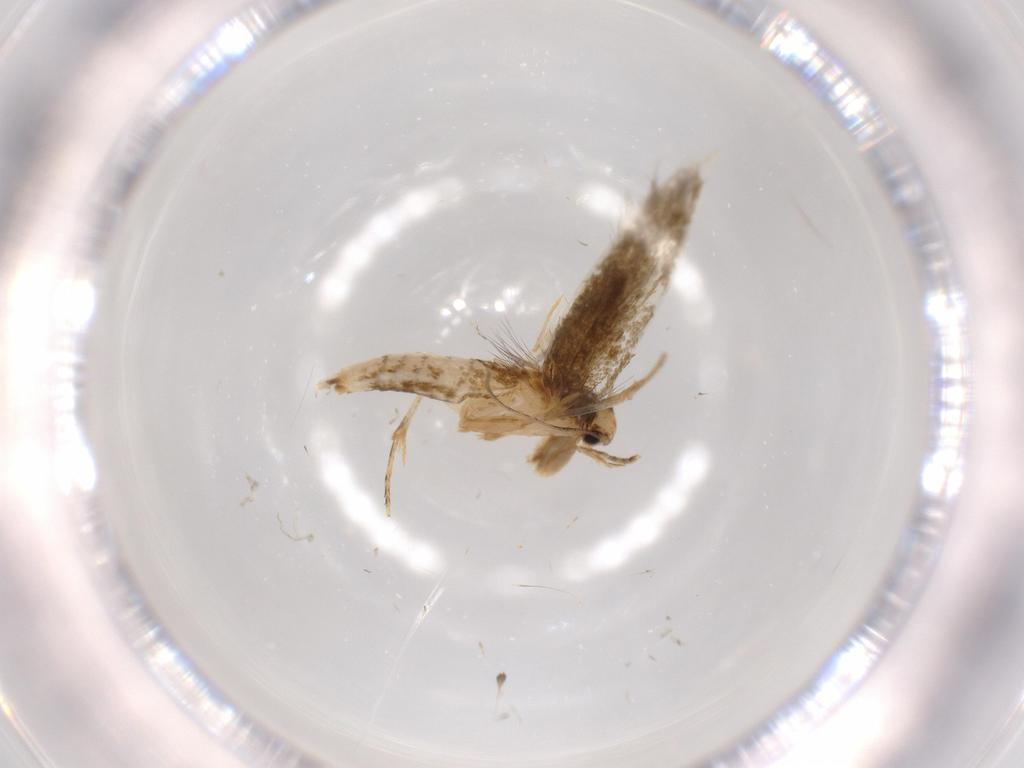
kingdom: Animalia
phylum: Arthropoda
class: Insecta
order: Lepidoptera
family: Tineidae
